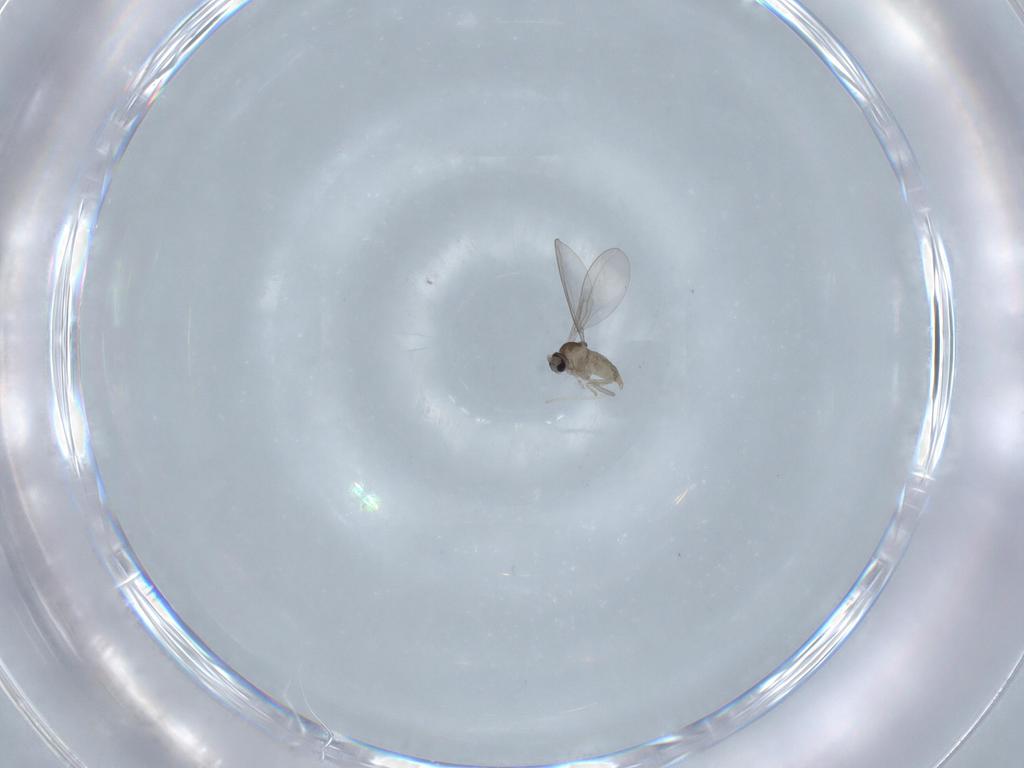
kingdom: Animalia
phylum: Arthropoda
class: Insecta
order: Diptera
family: Cecidomyiidae
